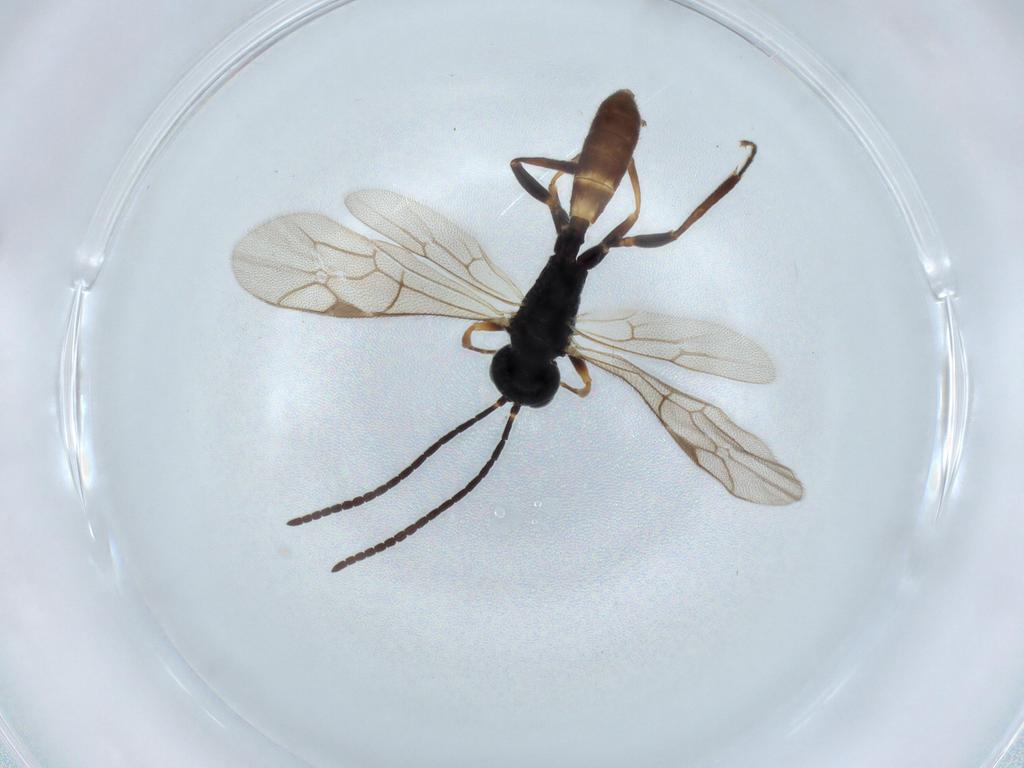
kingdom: Animalia
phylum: Arthropoda
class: Insecta
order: Hymenoptera
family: Ichneumonidae
